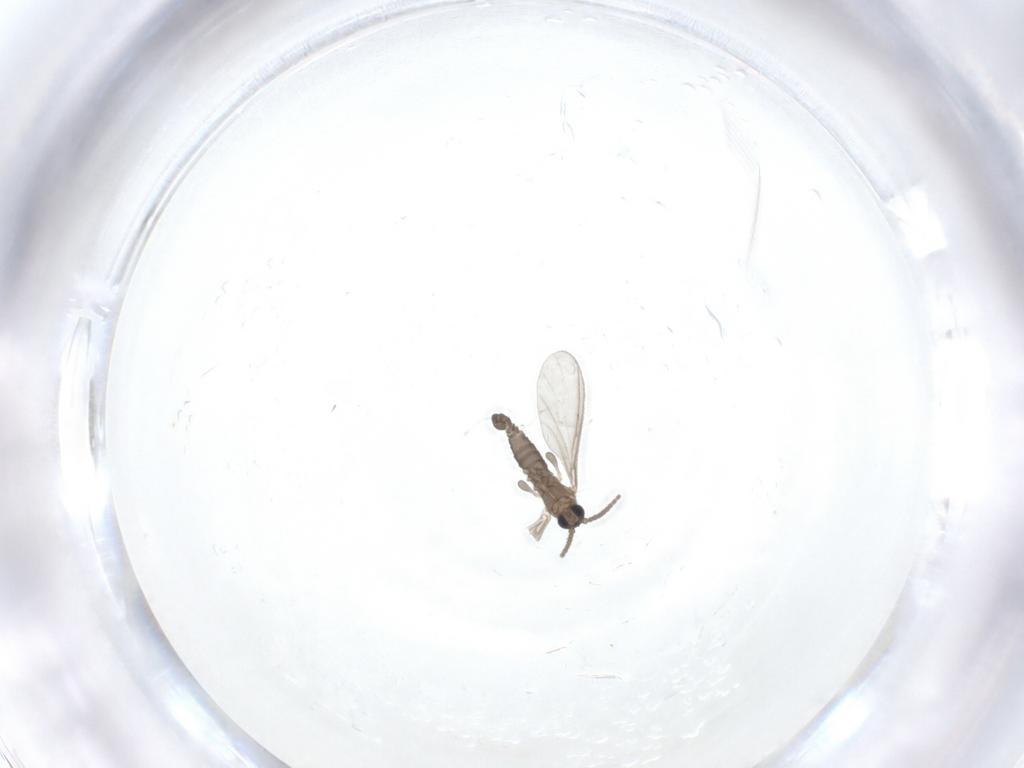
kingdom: Animalia
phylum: Arthropoda
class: Insecta
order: Diptera
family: Sciaridae
